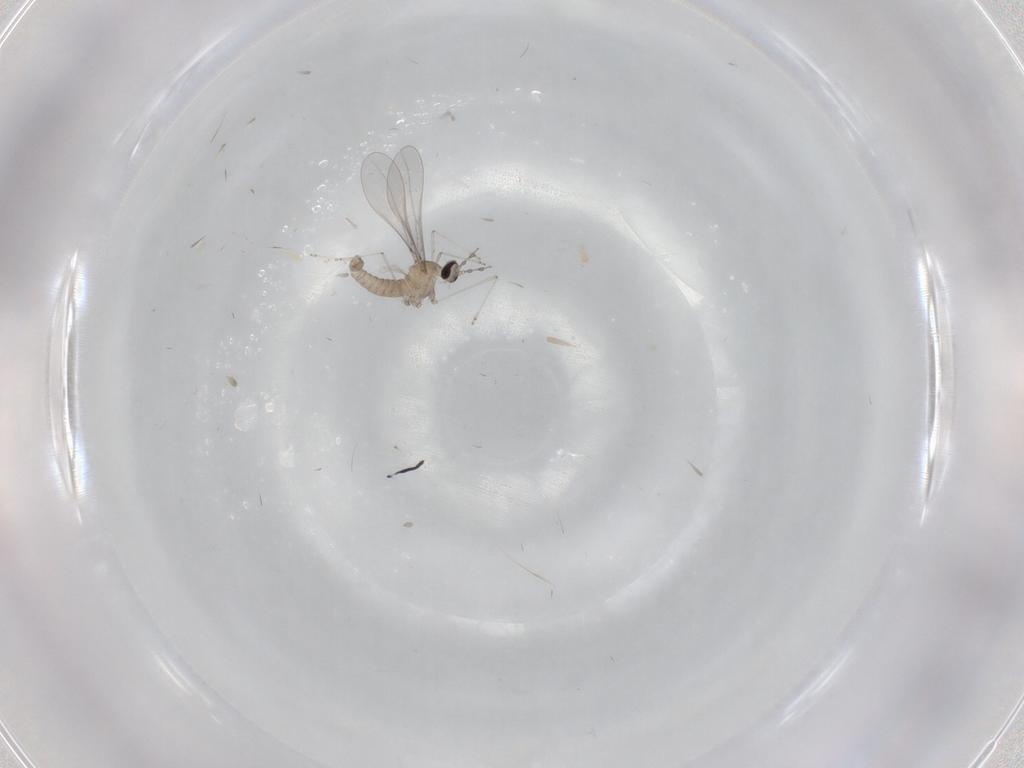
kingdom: Animalia
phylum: Arthropoda
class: Insecta
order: Diptera
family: Cecidomyiidae
